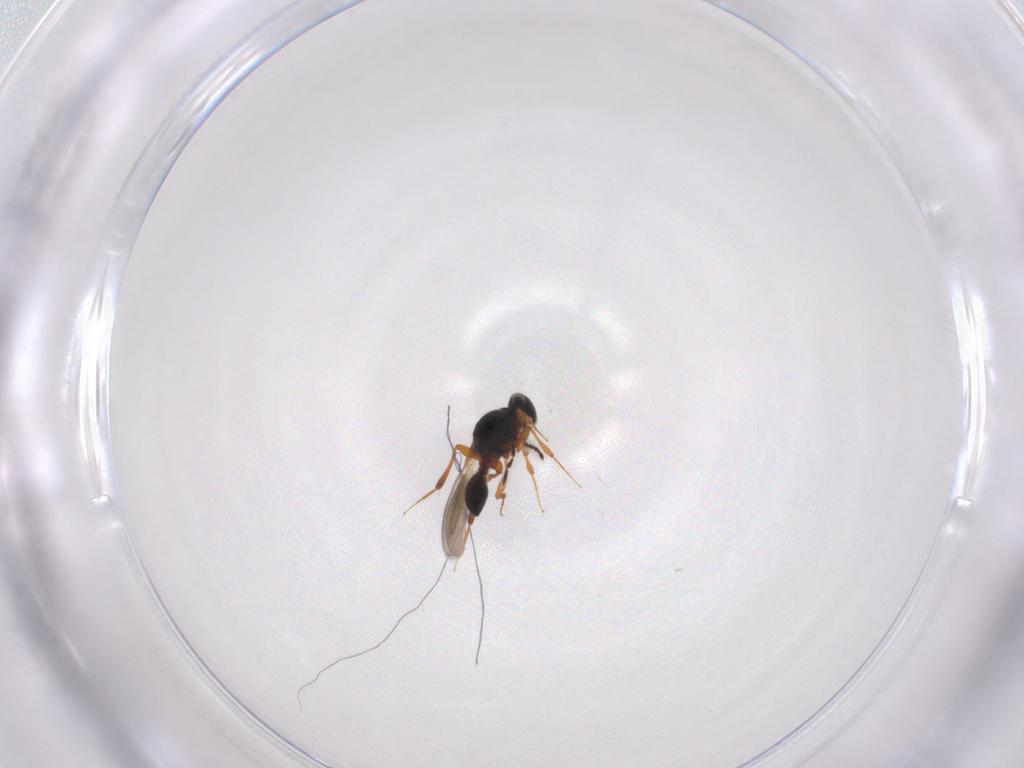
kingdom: Animalia
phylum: Arthropoda
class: Insecta
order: Hymenoptera
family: Platygastridae
